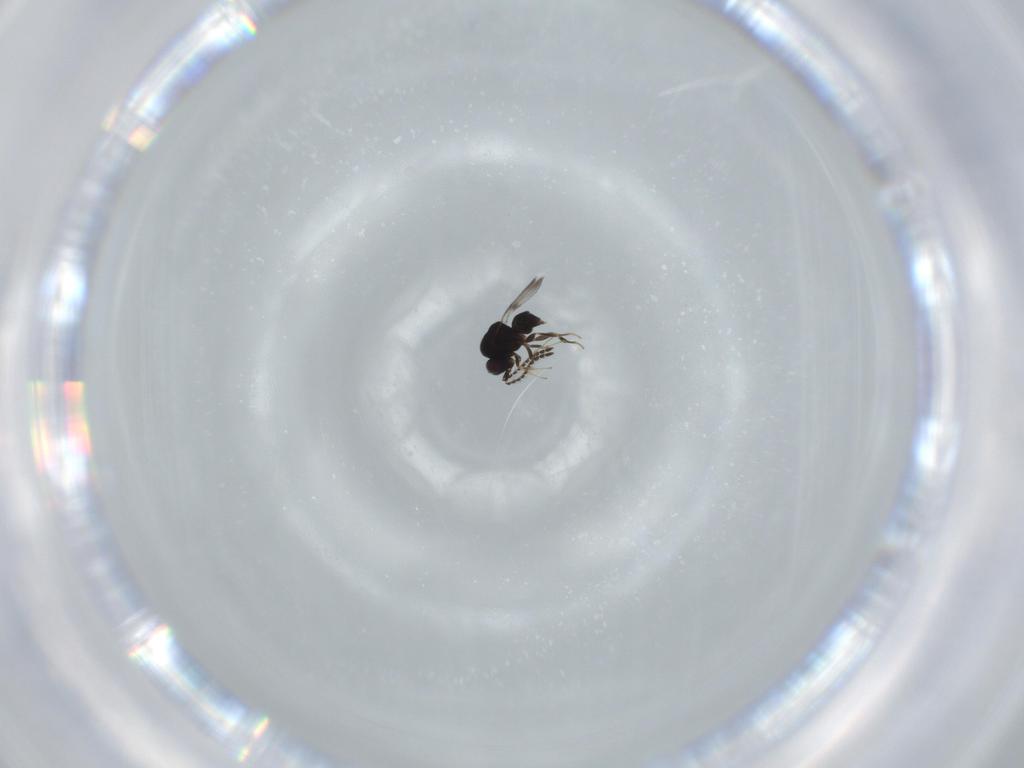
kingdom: Animalia
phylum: Arthropoda
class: Insecta
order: Hymenoptera
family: Ceraphronidae
